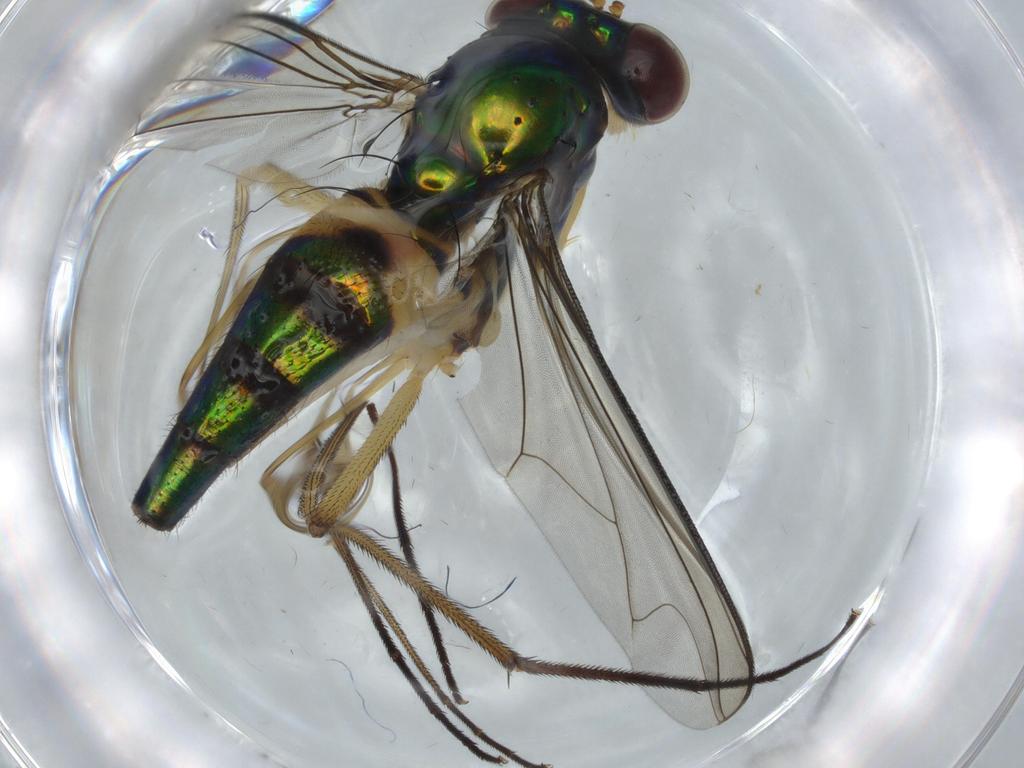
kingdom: Animalia
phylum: Arthropoda
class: Insecta
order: Diptera
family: Dolichopodidae
